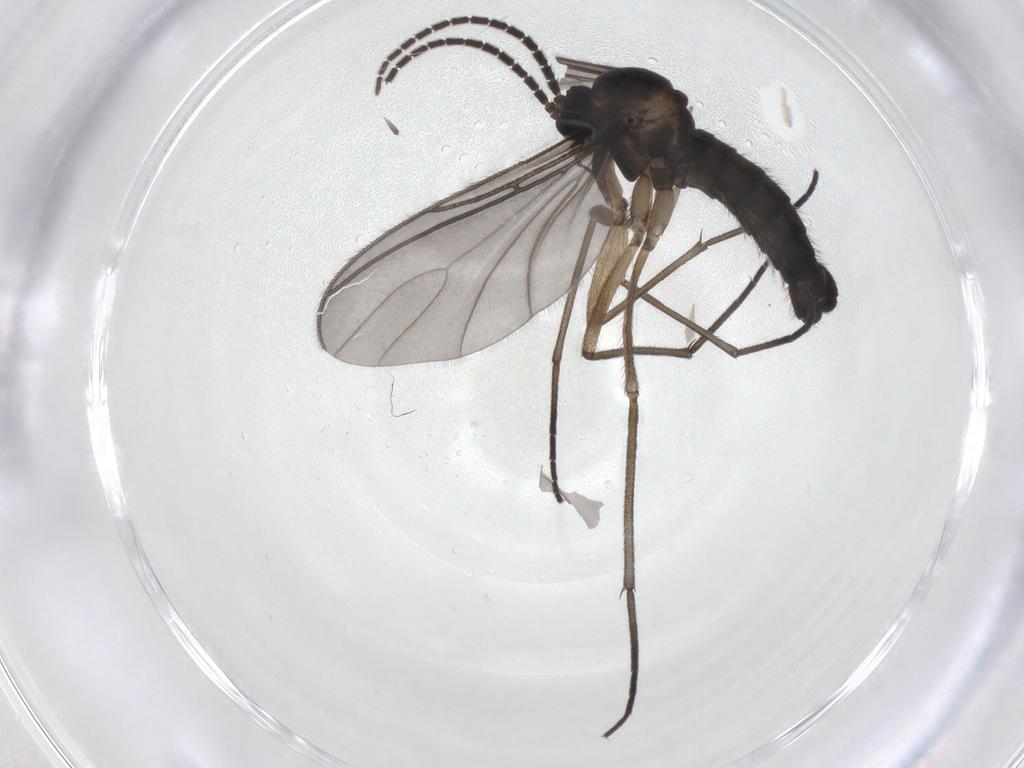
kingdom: Animalia
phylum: Arthropoda
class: Insecta
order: Diptera
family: Sciaridae
